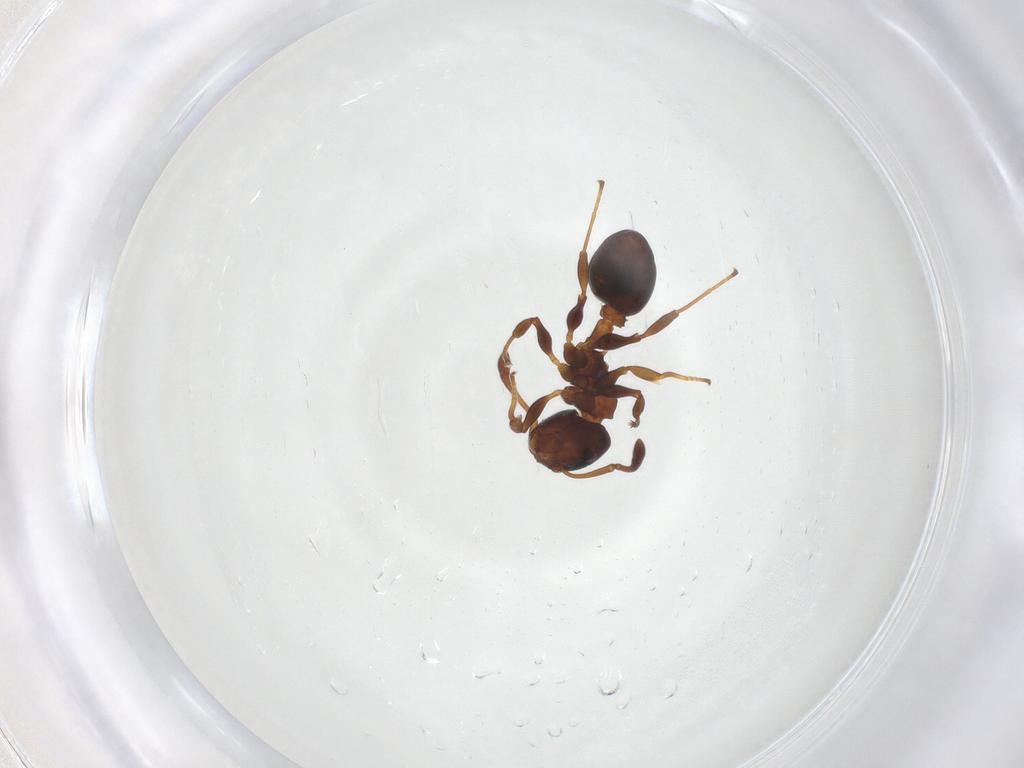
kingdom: Animalia
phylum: Arthropoda
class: Insecta
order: Hymenoptera
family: Formicidae
